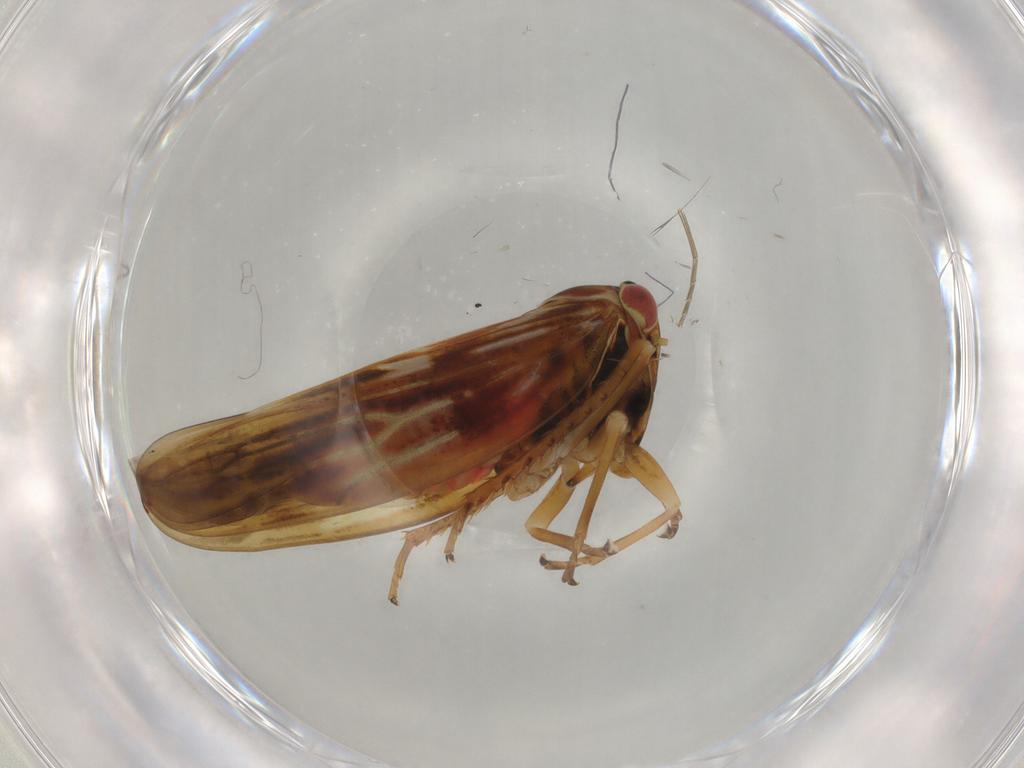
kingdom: Animalia
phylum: Arthropoda
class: Insecta
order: Hemiptera
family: Cicadellidae
